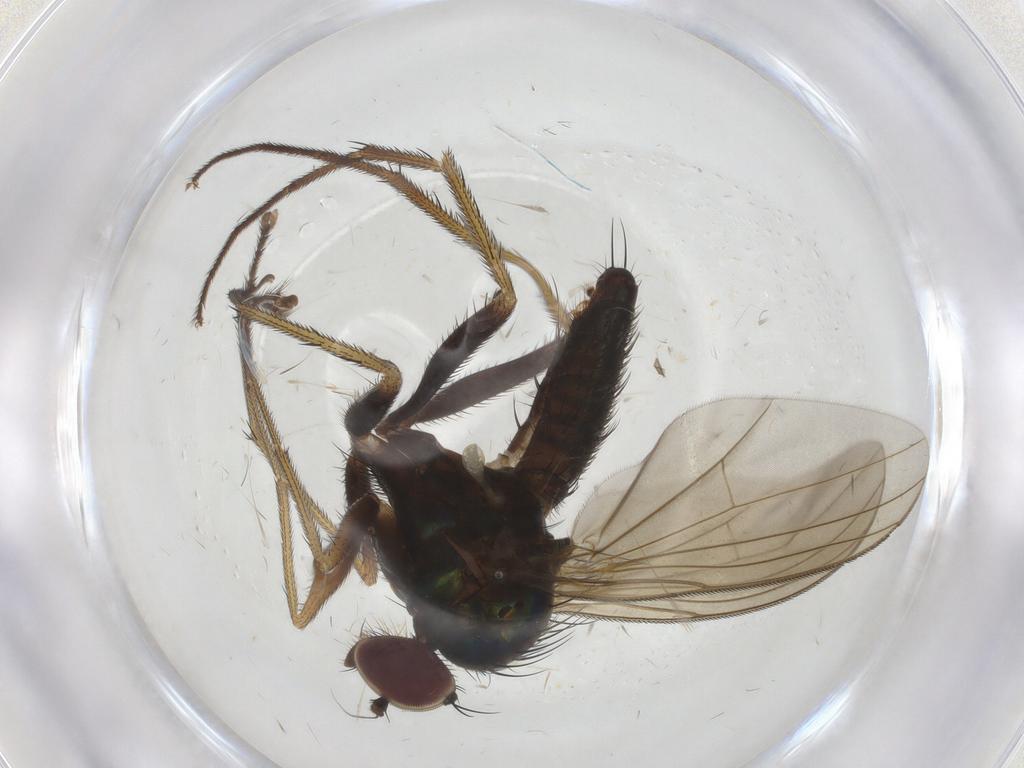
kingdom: Animalia
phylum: Arthropoda
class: Insecta
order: Diptera
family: Dolichopodidae
